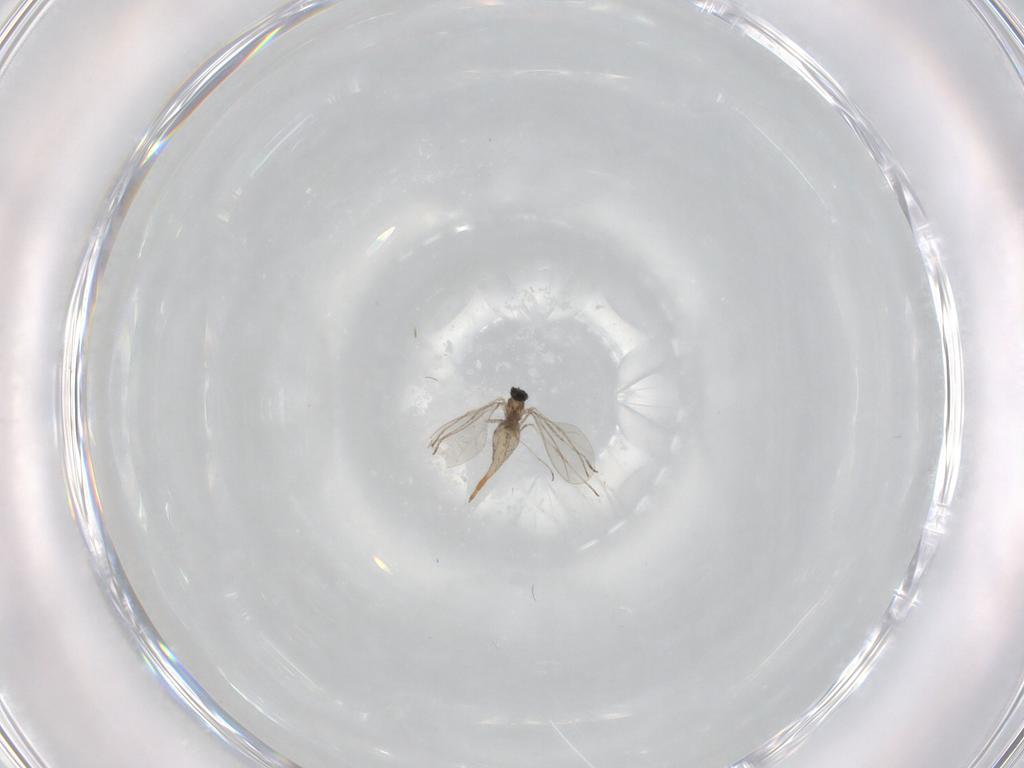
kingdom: Animalia
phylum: Arthropoda
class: Insecta
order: Diptera
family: Cecidomyiidae
